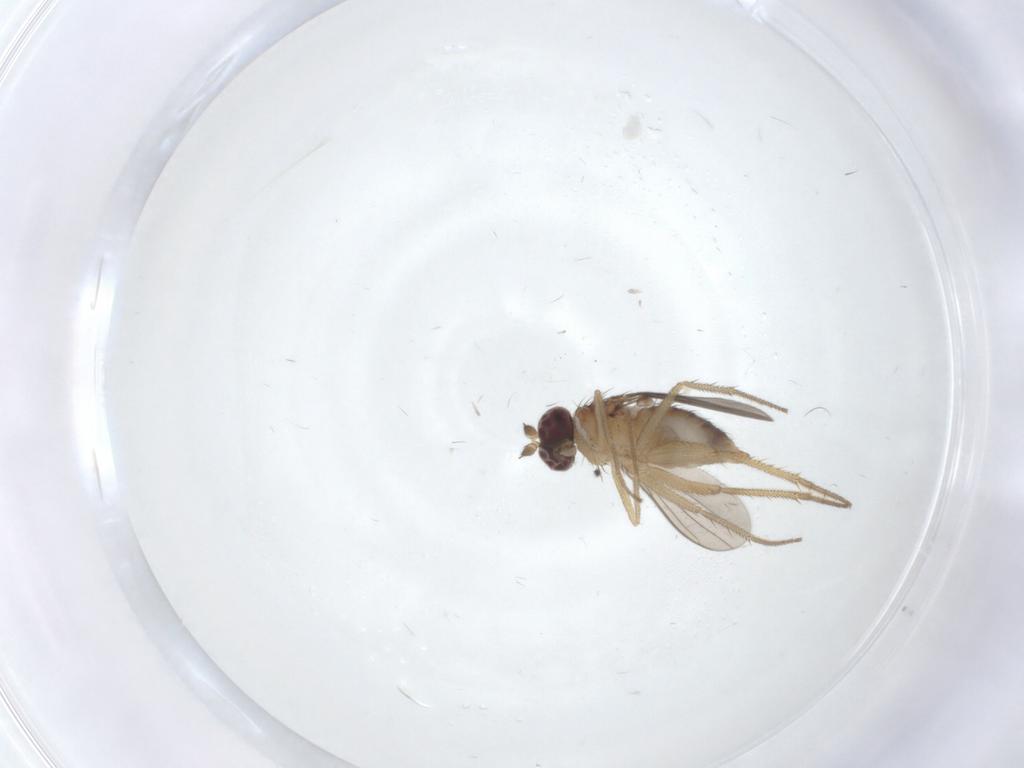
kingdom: Animalia
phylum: Arthropoda
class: Insecta
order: Diptera
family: Dolichopodidae
